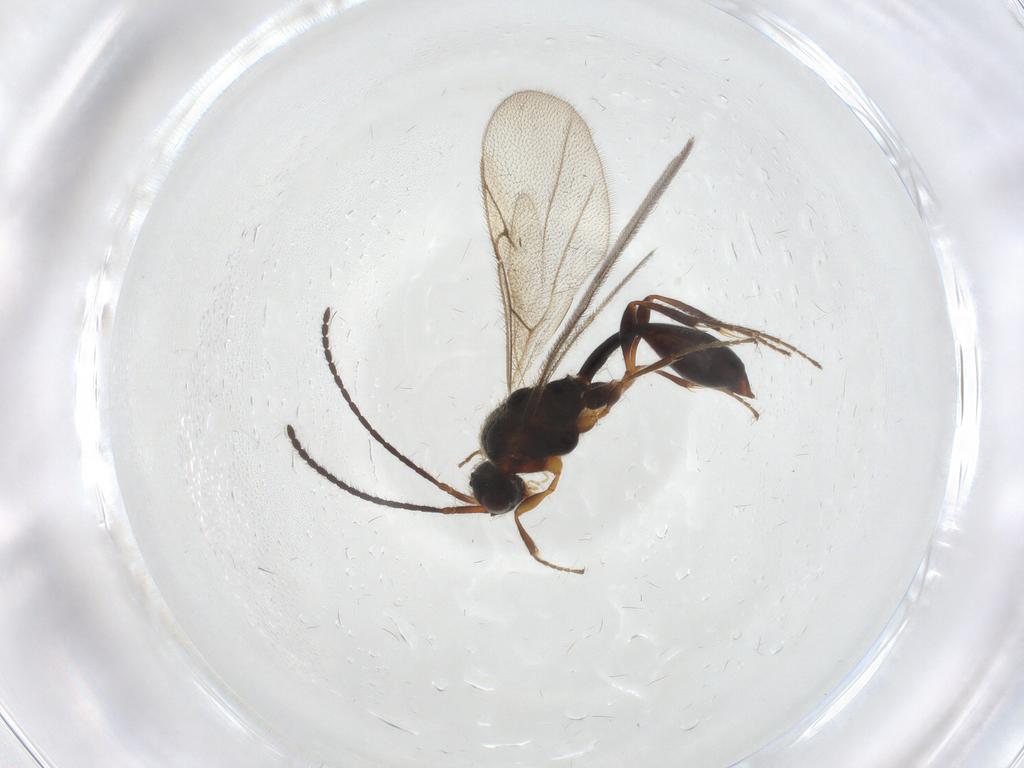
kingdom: Animalia
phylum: Arthropoda
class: Insecta
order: Hymenoptera
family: Diapriidae
